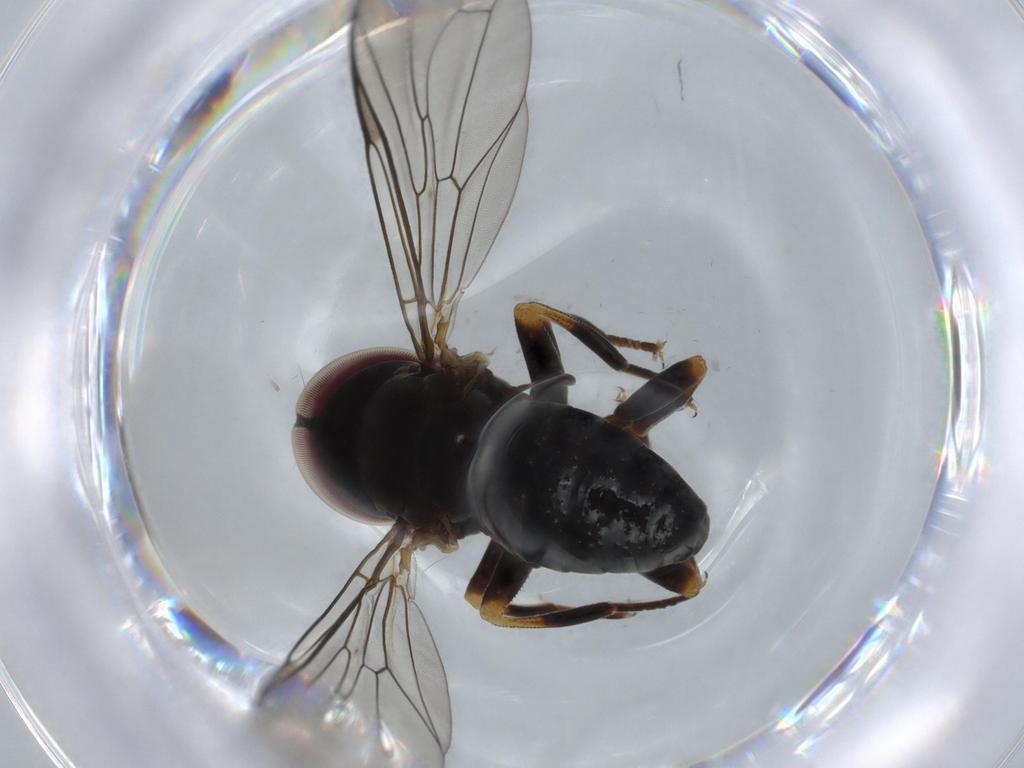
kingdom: Animalia
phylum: Arthropoda
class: Insecta
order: Diptera
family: Pipunculidae
